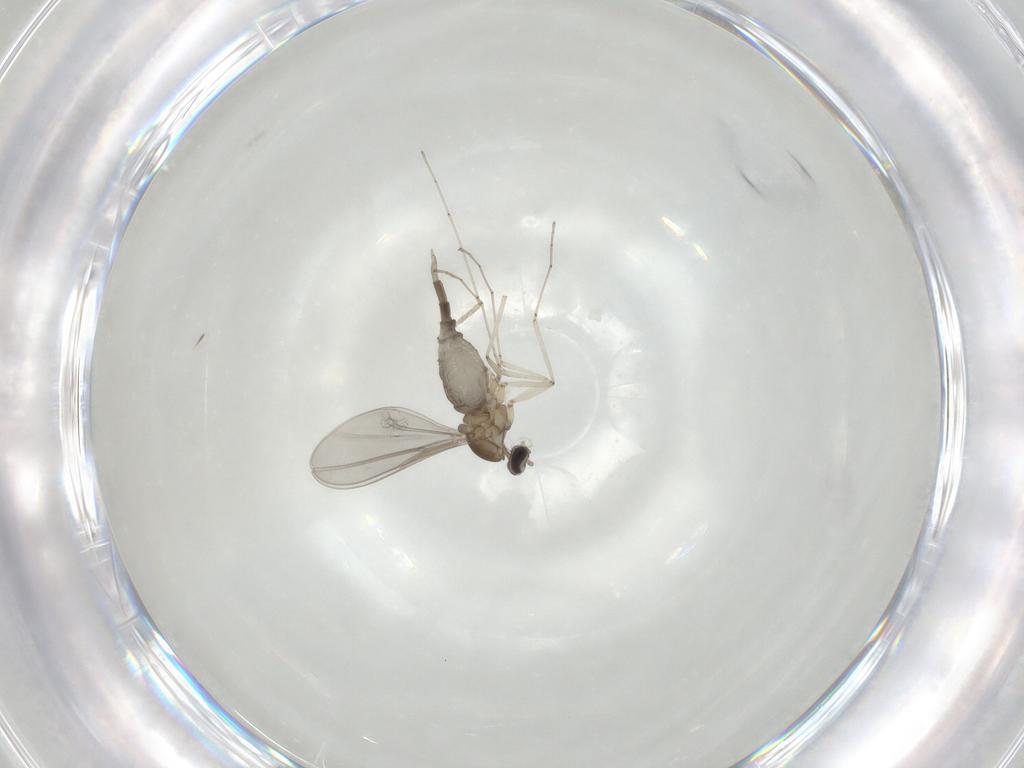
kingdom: Animalia
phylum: Arthropoda
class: Insecta
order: Diptera
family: Cecidomyiidae
